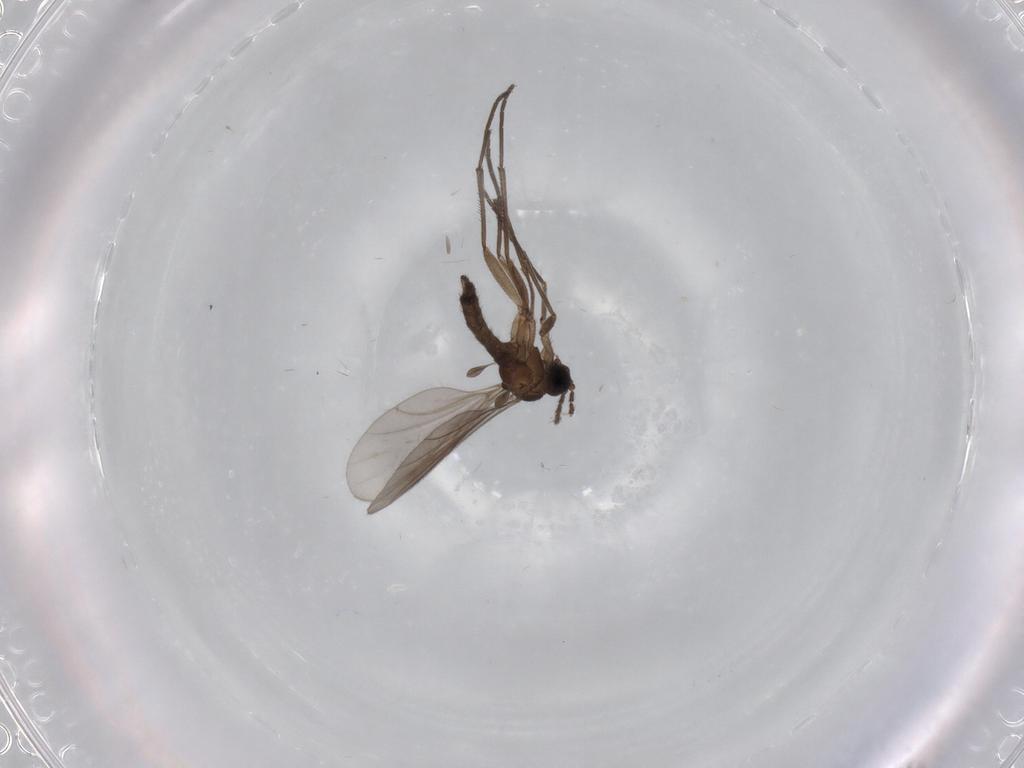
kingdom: Animalia
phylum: Arthropoda
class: Insecta
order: Diptera
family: Sciaridae
